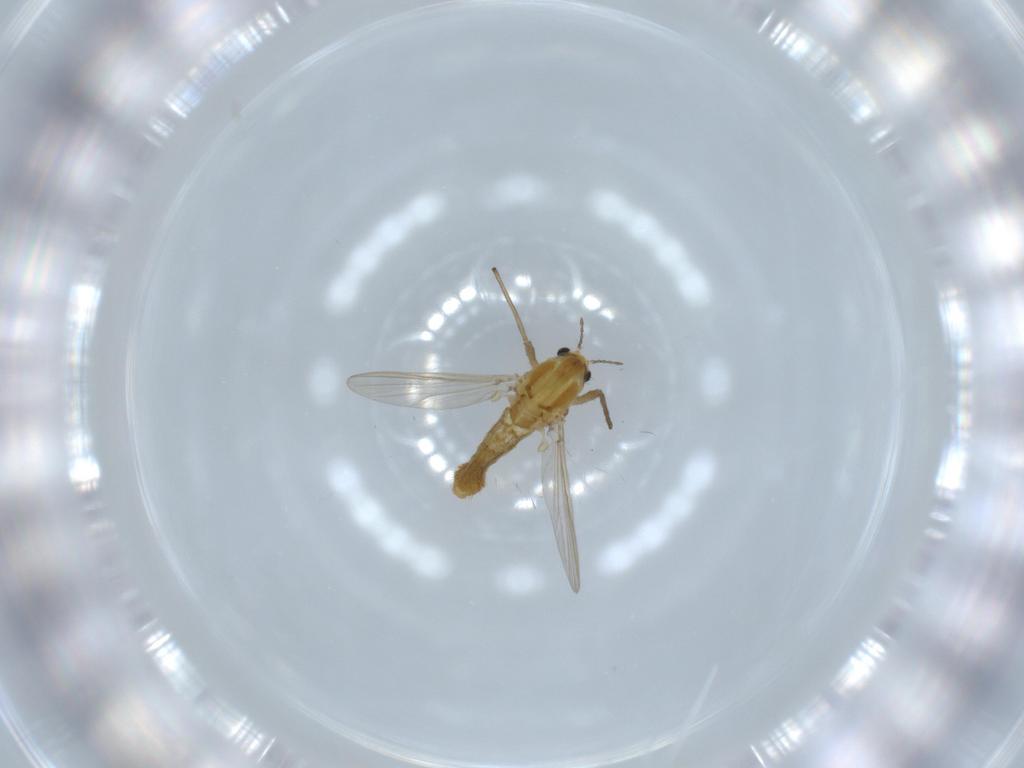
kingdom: Animalia
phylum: Arthropoda
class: Insecta
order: Diptera
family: Chironomidae
